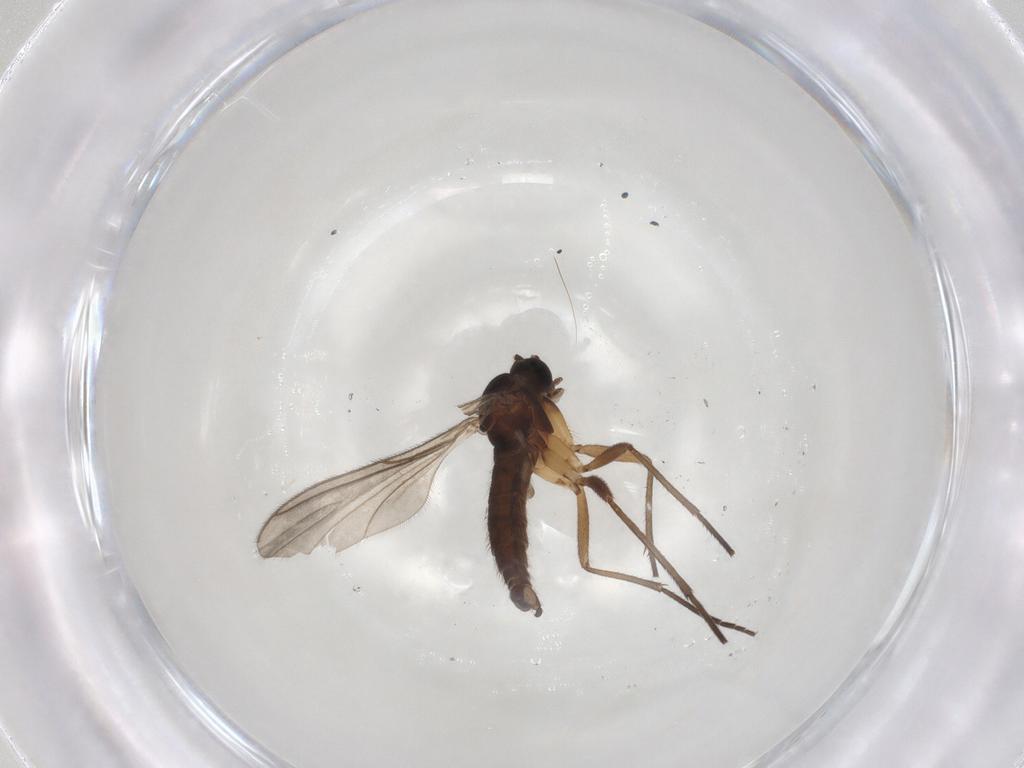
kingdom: Animalia
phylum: Arthropoda
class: Insecta
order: Diptera
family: Sciaridae
